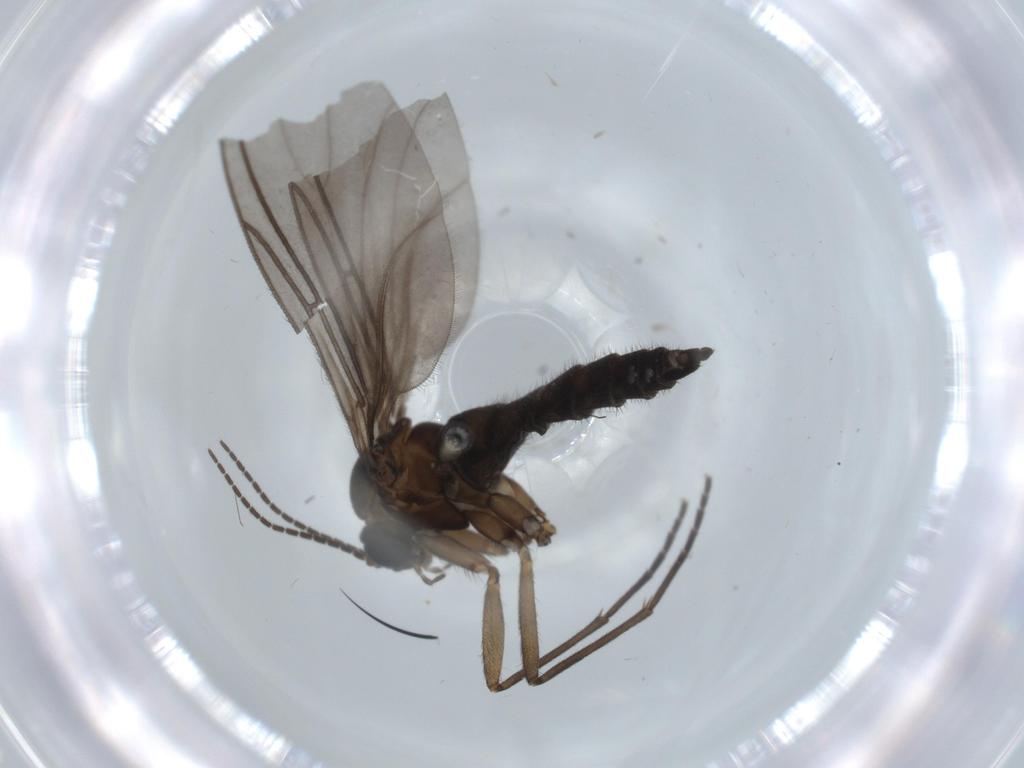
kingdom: Animalia
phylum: Arthropoda
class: Insecta
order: Diptera
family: Sciaridae
